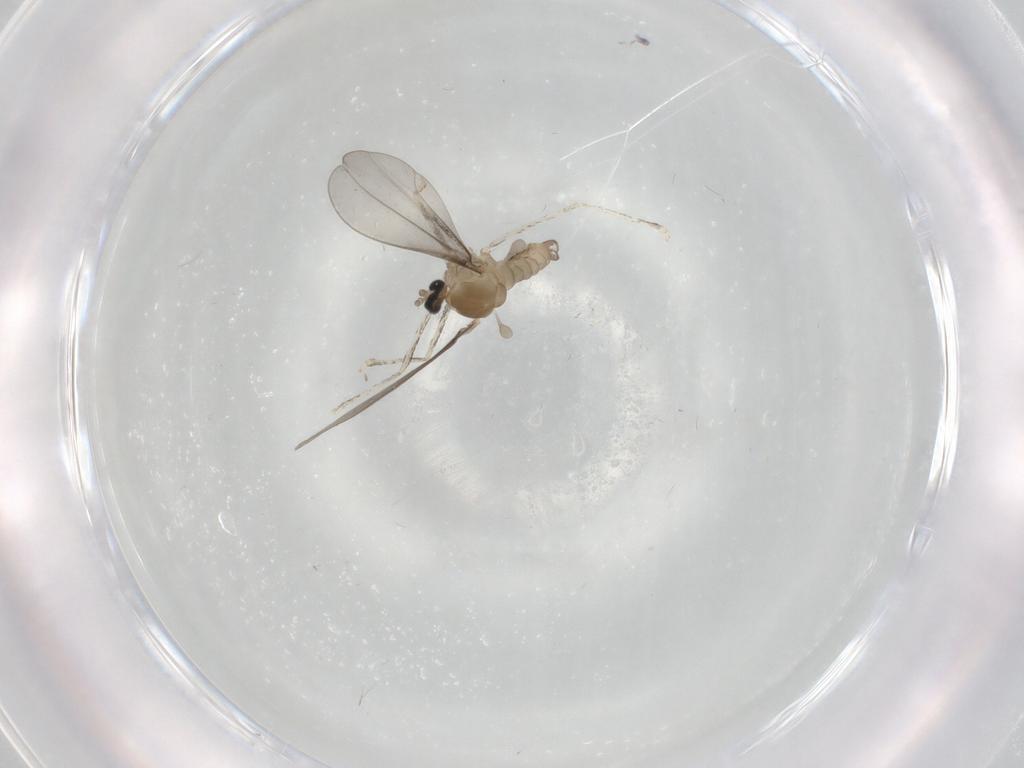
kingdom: Animalia
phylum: Arthropoda
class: Insecta
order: Diptera
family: Cecidomyiidae
